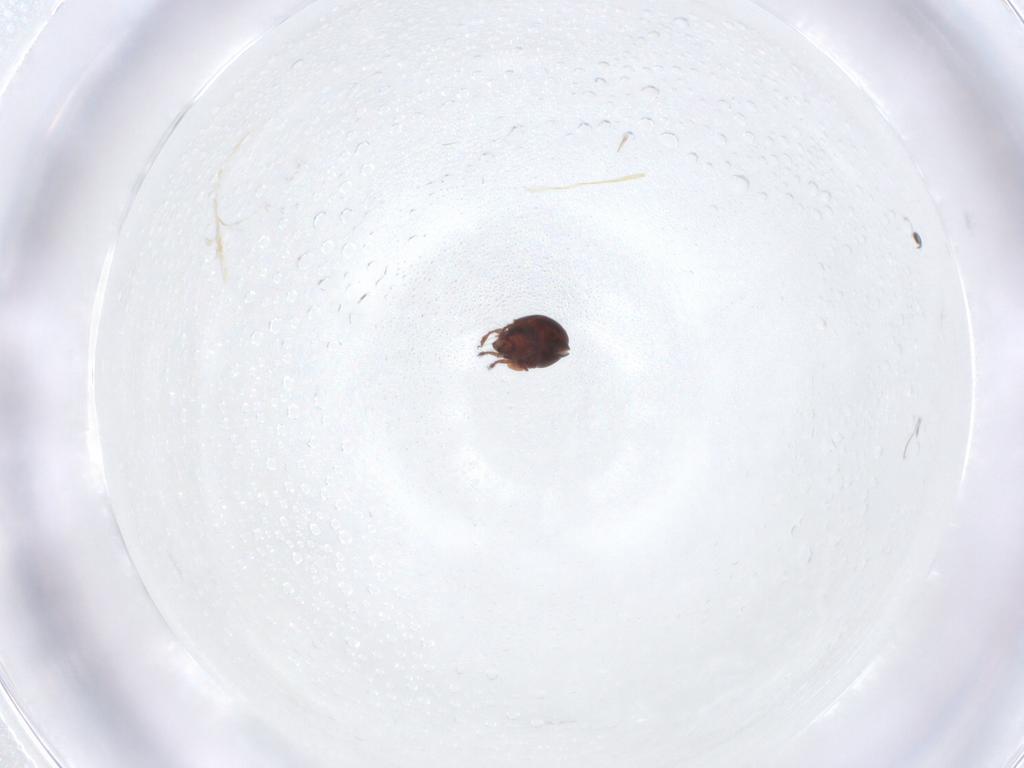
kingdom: Animalia
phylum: Arthropoda
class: Arachnida
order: Sarcoptiformes
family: Ceratozetidae
